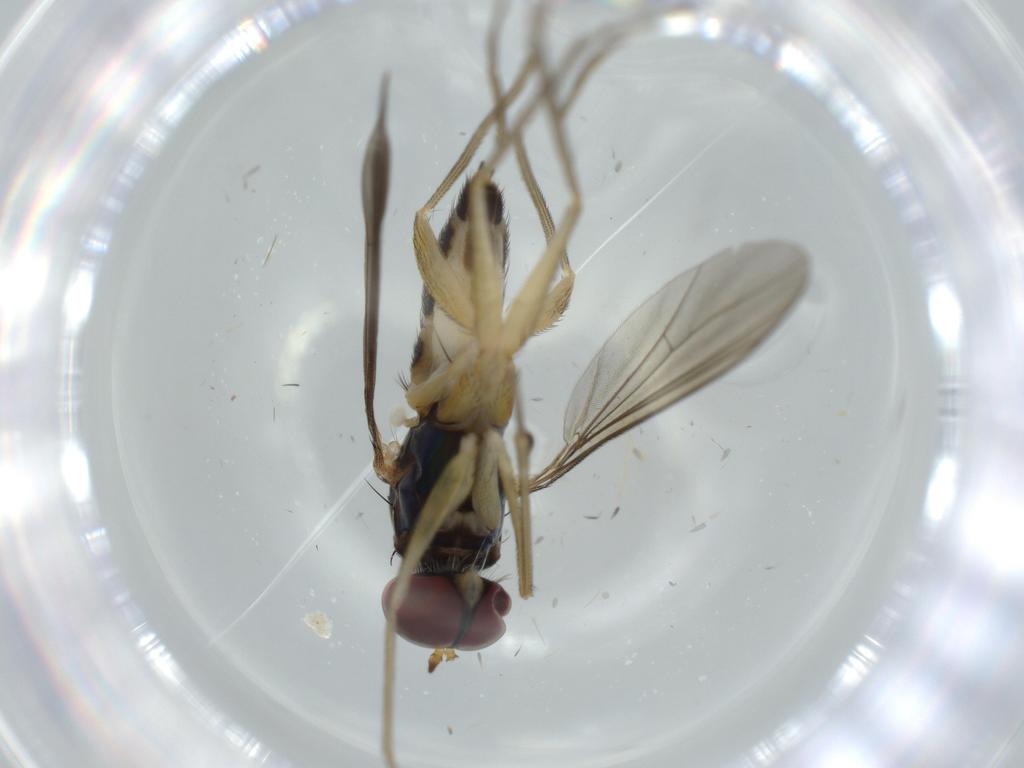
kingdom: Animalia
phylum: Arthropoda
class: Insecta
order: Diptera
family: Dolichopodidae
